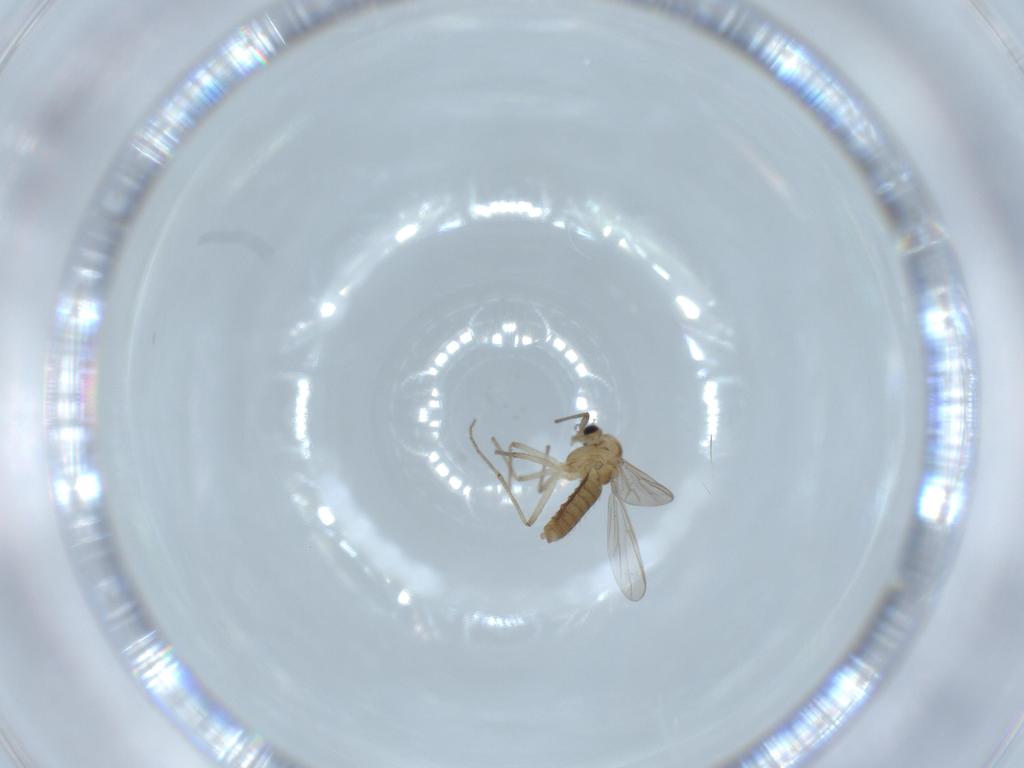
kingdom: Animalia
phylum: Arthropoda
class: Insecta
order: Diptera
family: Chironomidae
